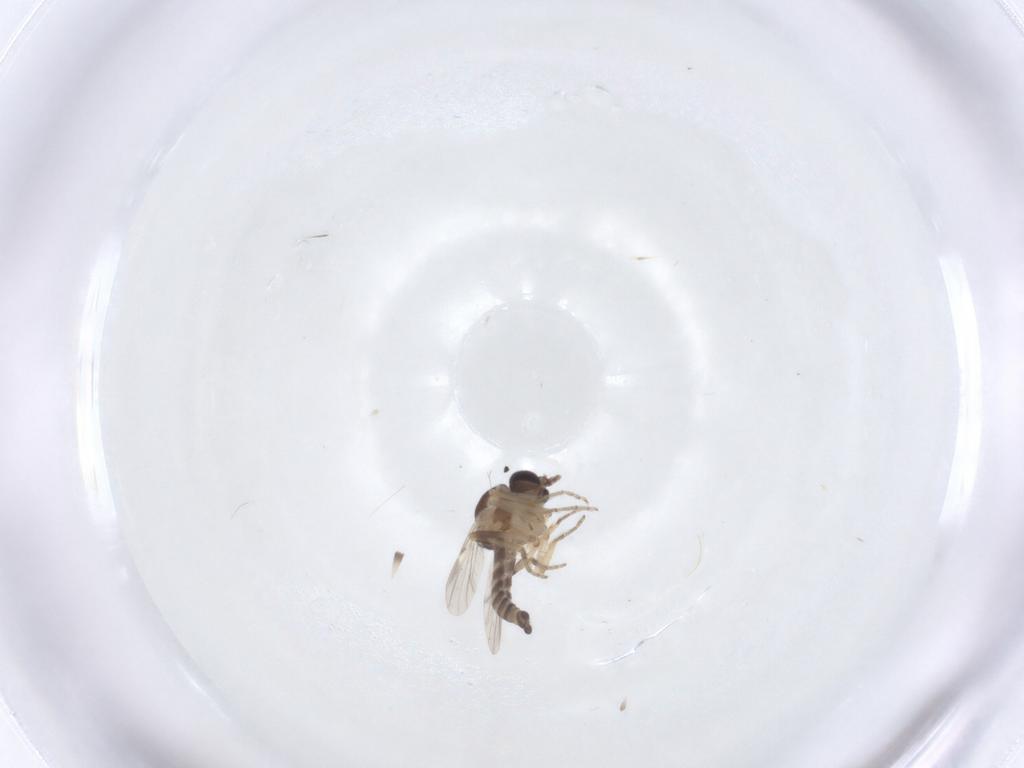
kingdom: Animalia
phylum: Arthropoda
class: Insecta
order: Diptera
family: Ceratopogonidae
